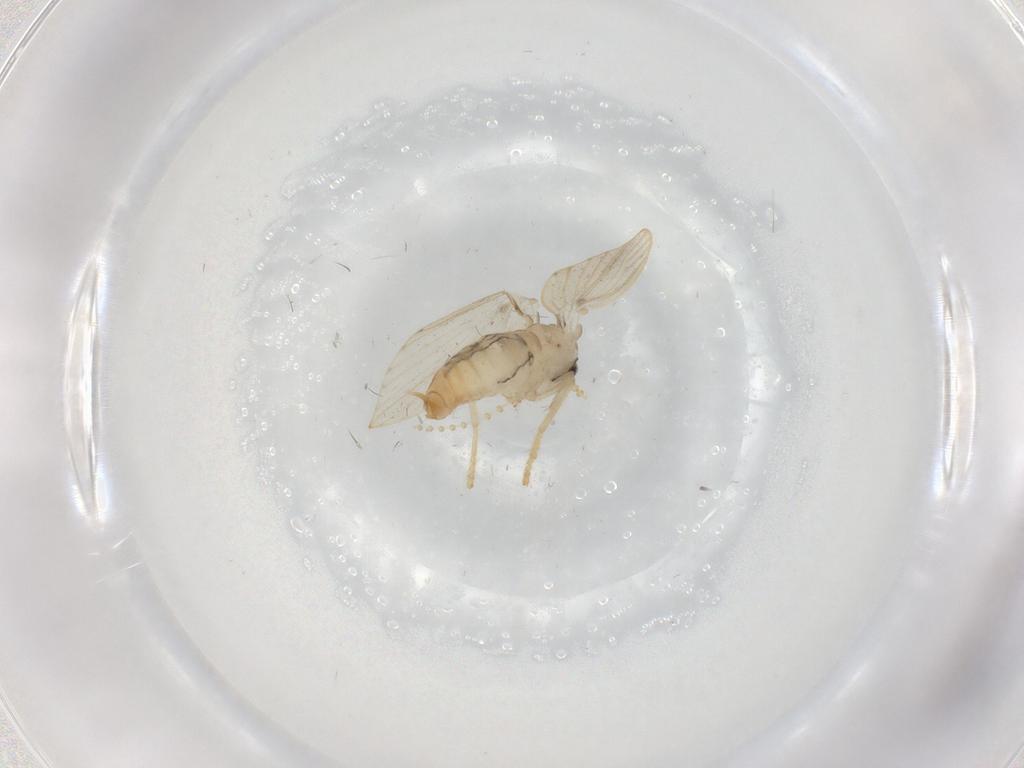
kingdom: Animalia
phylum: Arthropoda
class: Insecta
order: Diptera
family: Psychodidae
